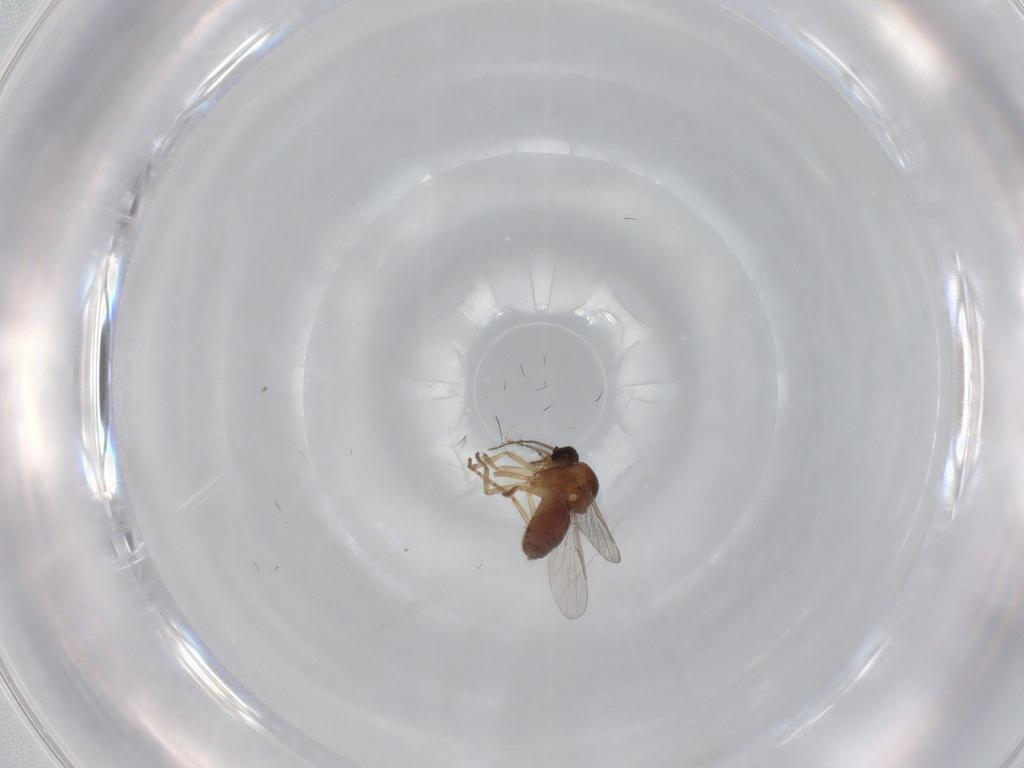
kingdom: Animalia
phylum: Arthropoda
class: Insecta
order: Diptera
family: Ceratopogonidae
